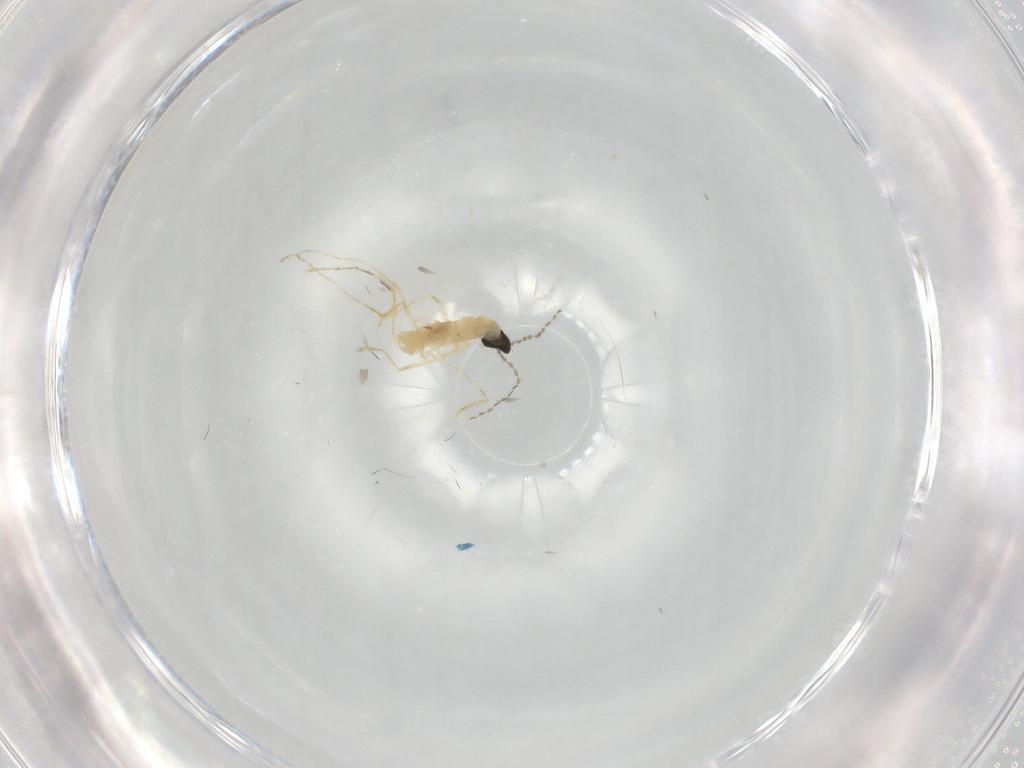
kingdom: Animalia
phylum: Arthropoda
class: Insecta
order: Diptera
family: Cecidomyiidae
